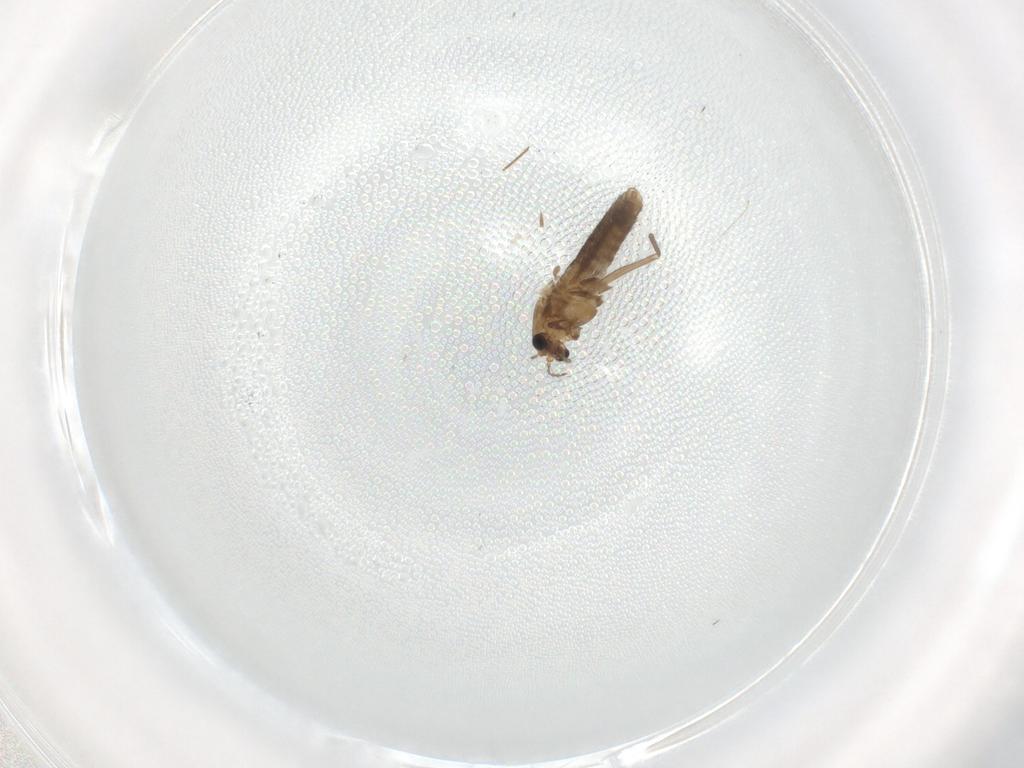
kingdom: Animalia
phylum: Arthropoda
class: Insecta
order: Diptera
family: Chironomidae
